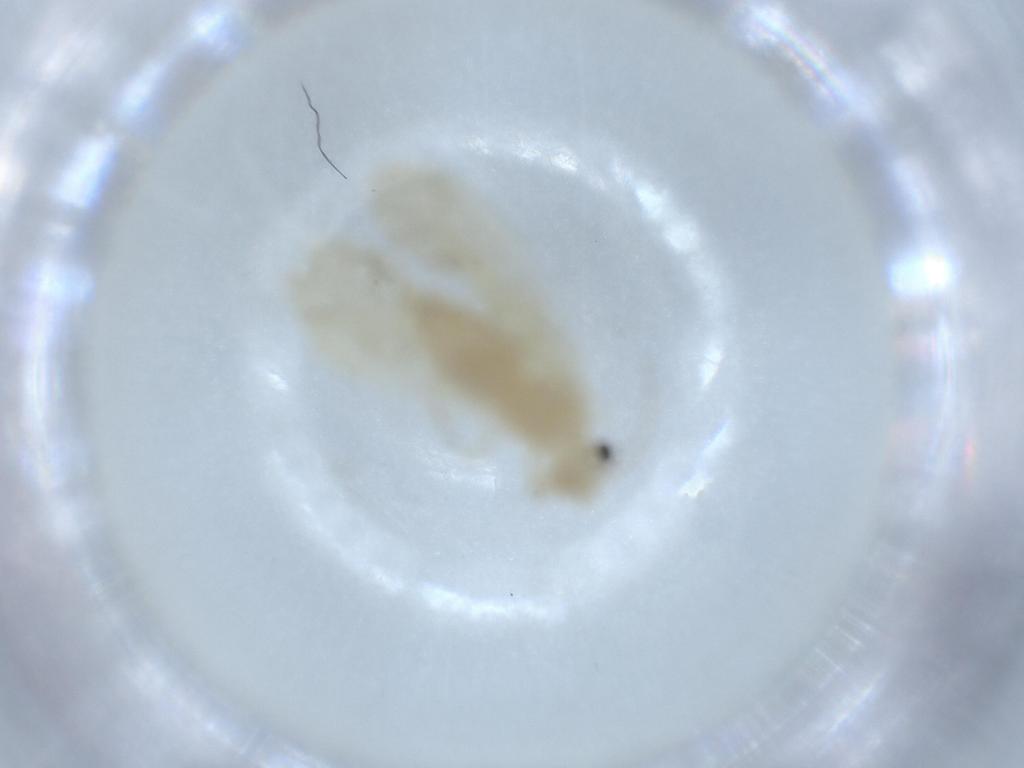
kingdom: Animalia
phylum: Arthropoda
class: Insecta
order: Psocodea
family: Caeciliusidae
